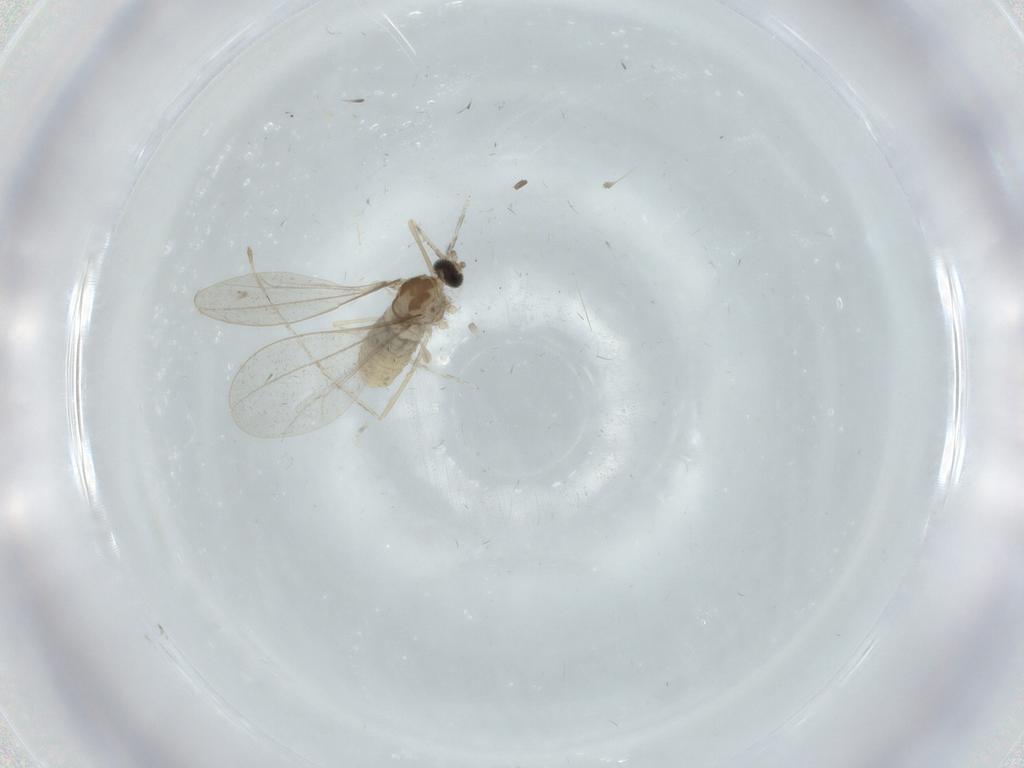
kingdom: Animalia
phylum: Arthropoda
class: Insecta
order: Diptera
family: Cecidomyiidae
